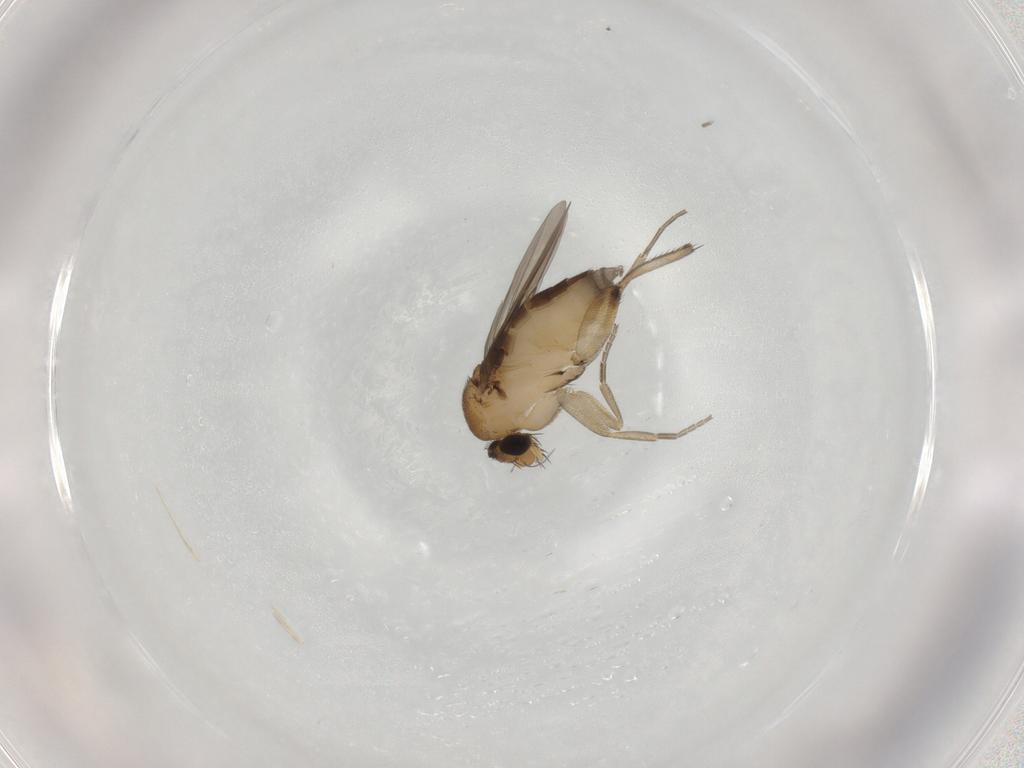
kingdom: Animalia
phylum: Arthropoda
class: Insecta
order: Diptera
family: Phoridae
